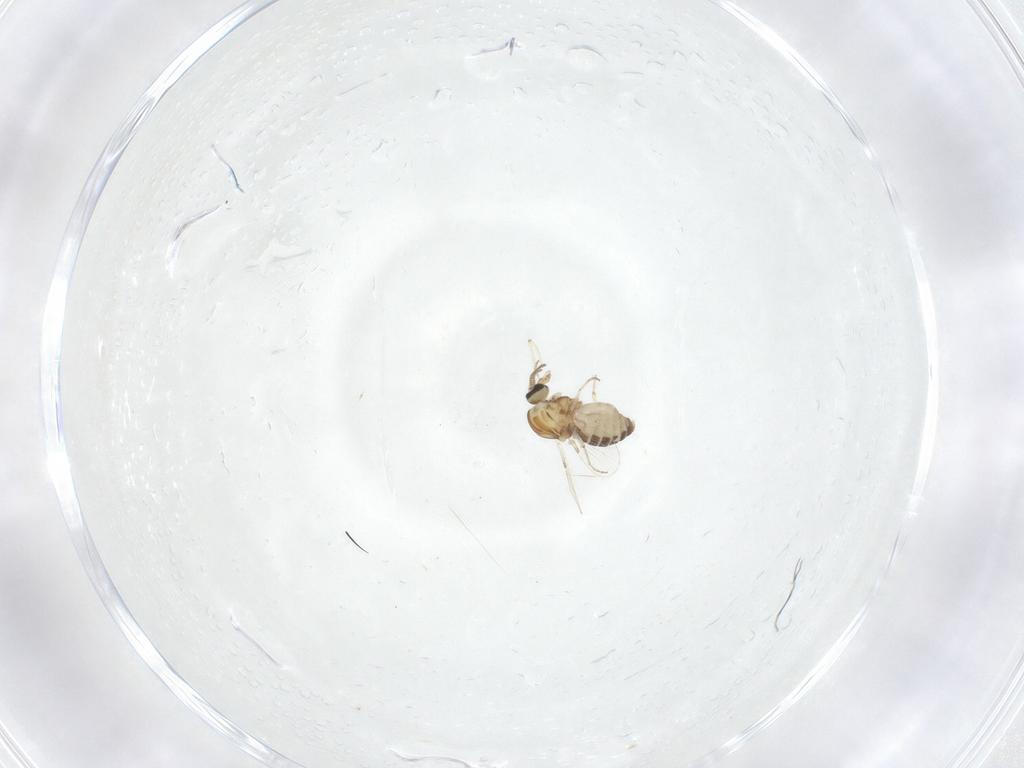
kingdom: Animalia
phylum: Arthropoda
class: Insecta
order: Diptera
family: Ceratopogonidae
